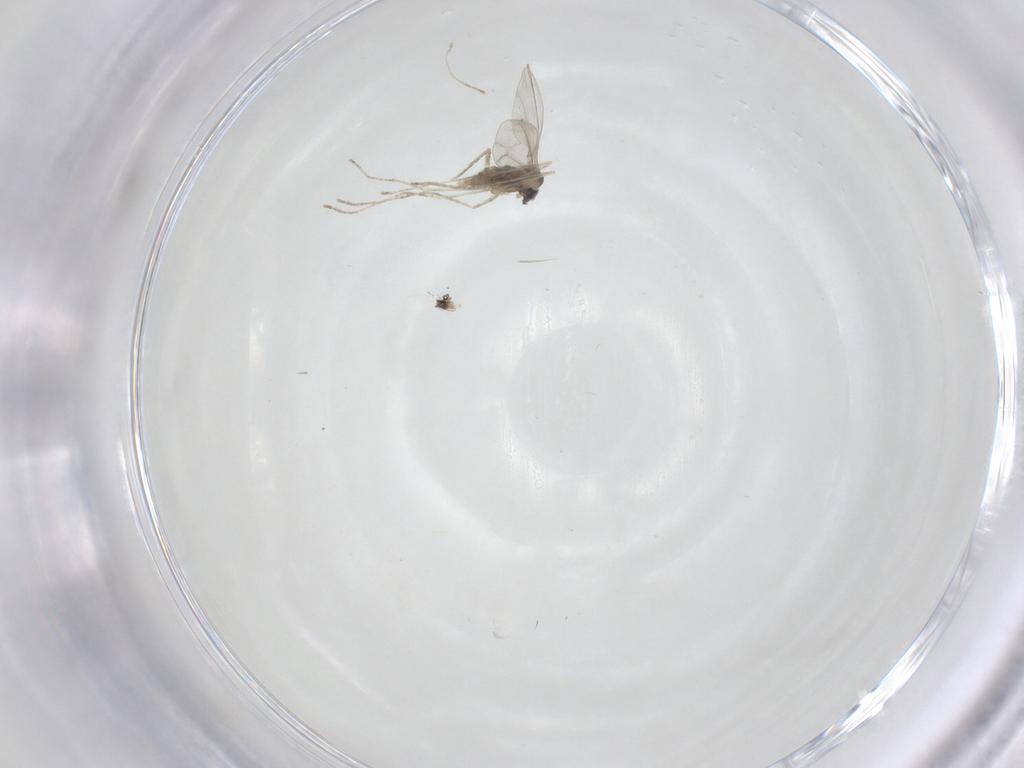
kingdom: Animalia
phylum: Arthropoda
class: Insecta
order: Diptera
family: Cecidomyiidae
